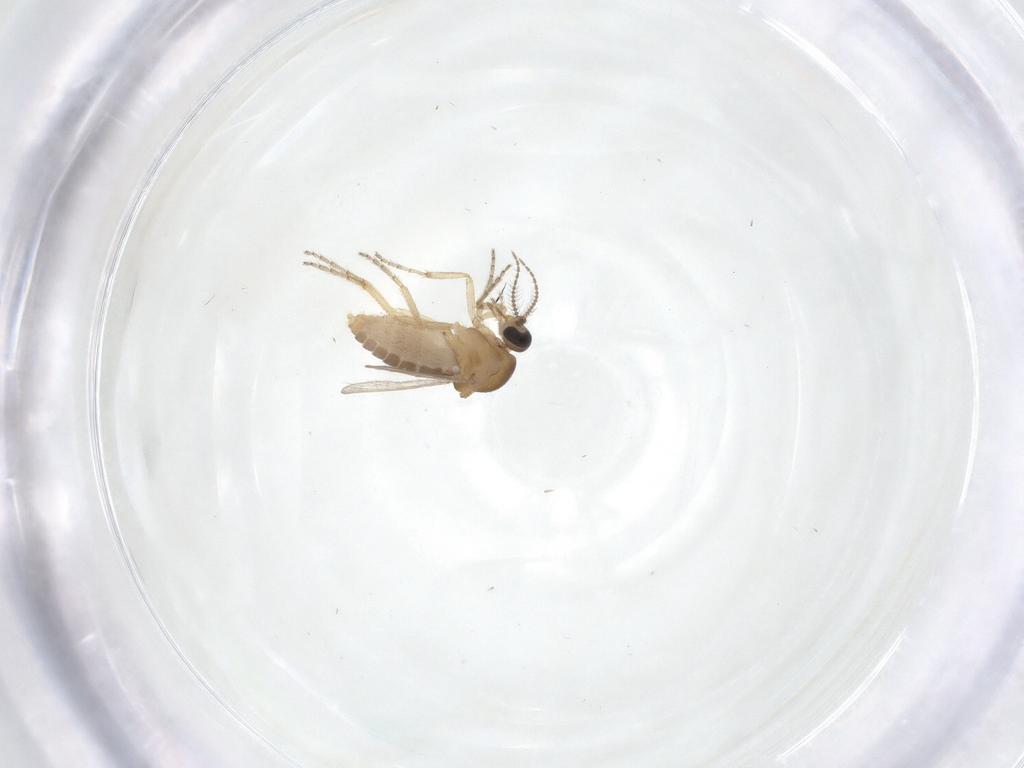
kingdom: Animalia
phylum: Arthropoda
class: Insecta
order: Diptera
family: Ceratopogonidae
